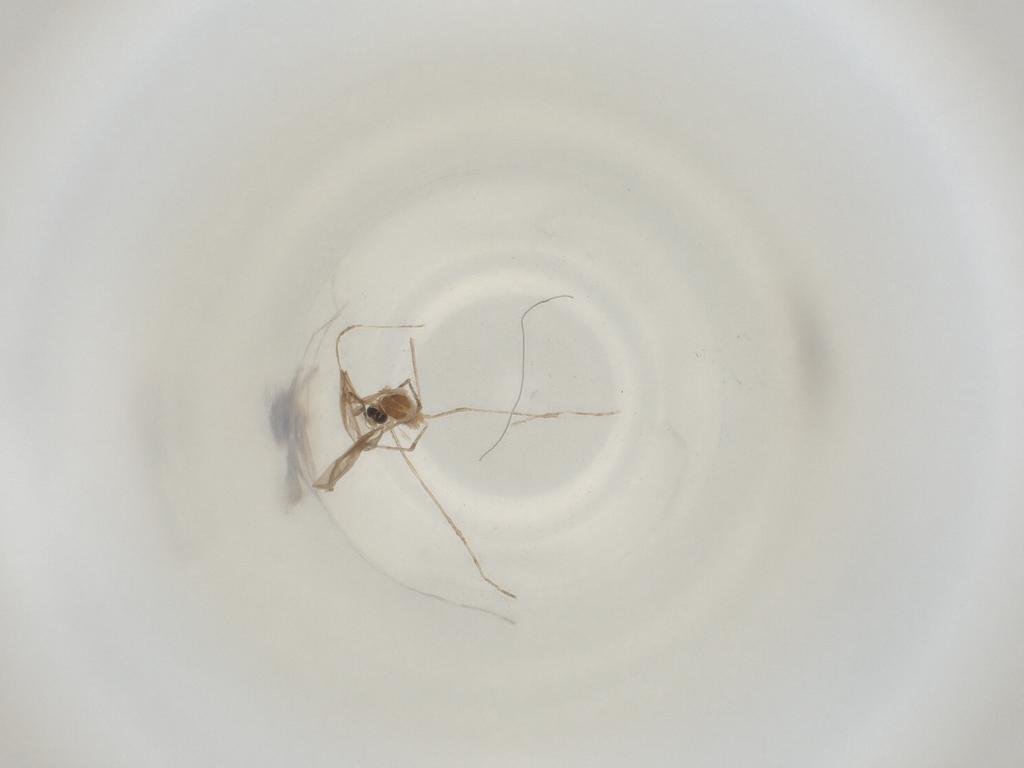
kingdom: Animalia
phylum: Arthropoda
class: Insecta
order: Diptera
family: Cecidomyiidae
